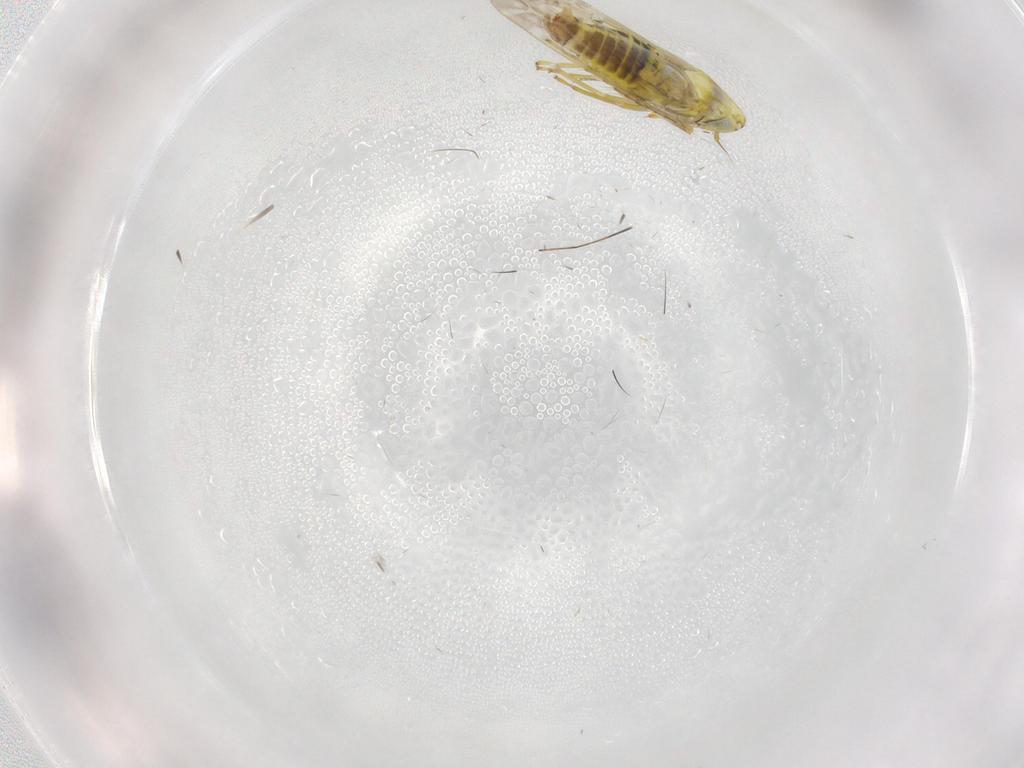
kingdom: Animalia
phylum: Arthropoda
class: Insecta
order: Hemiptera
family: Cicadellidae
